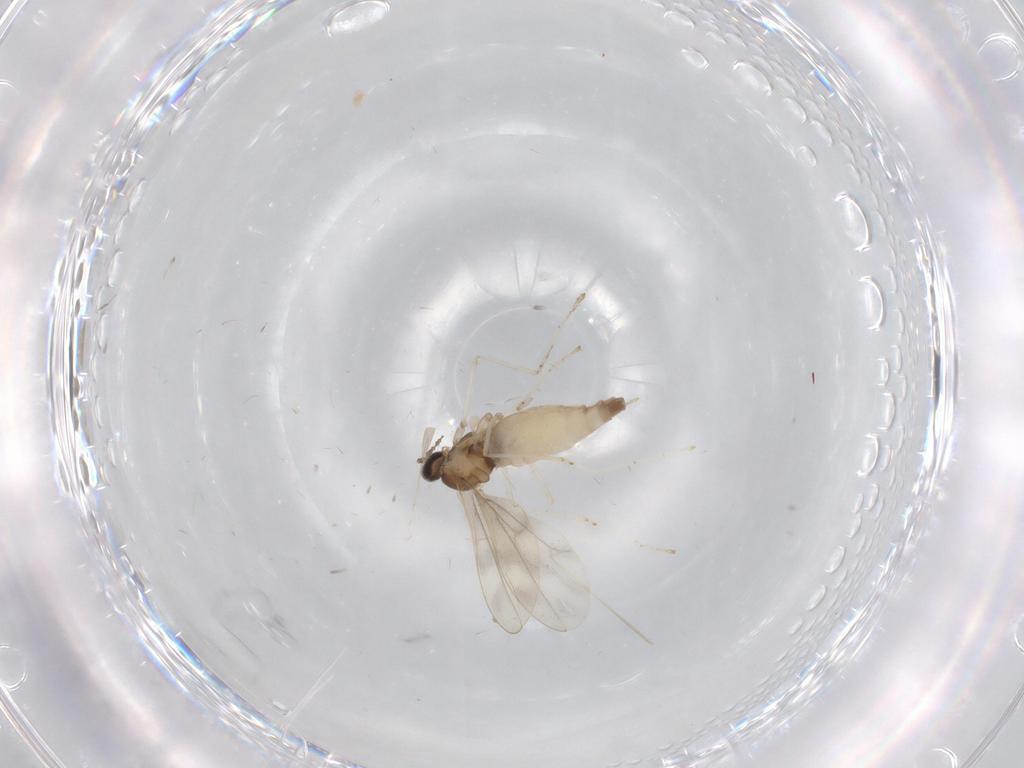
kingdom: Animalia
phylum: Arthropoda
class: Insecta
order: Diptera
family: Cecidomyiidae
